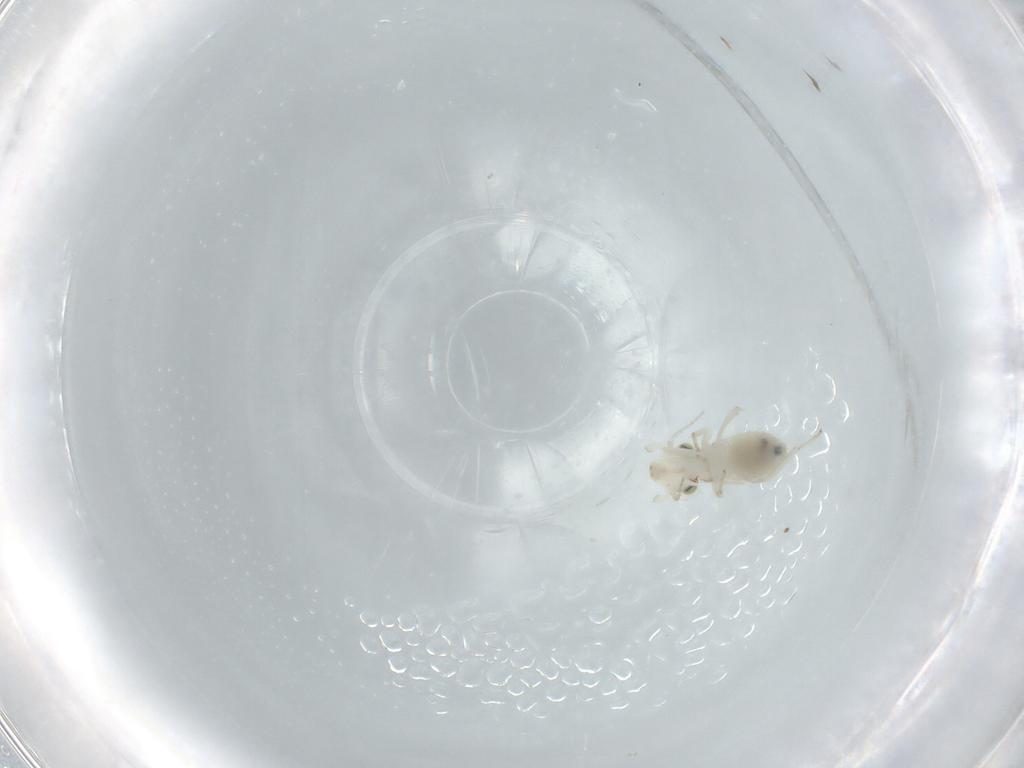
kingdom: Animalia
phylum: Arthropoda
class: Insecta
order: Psocodea
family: Lepidopsocidae
